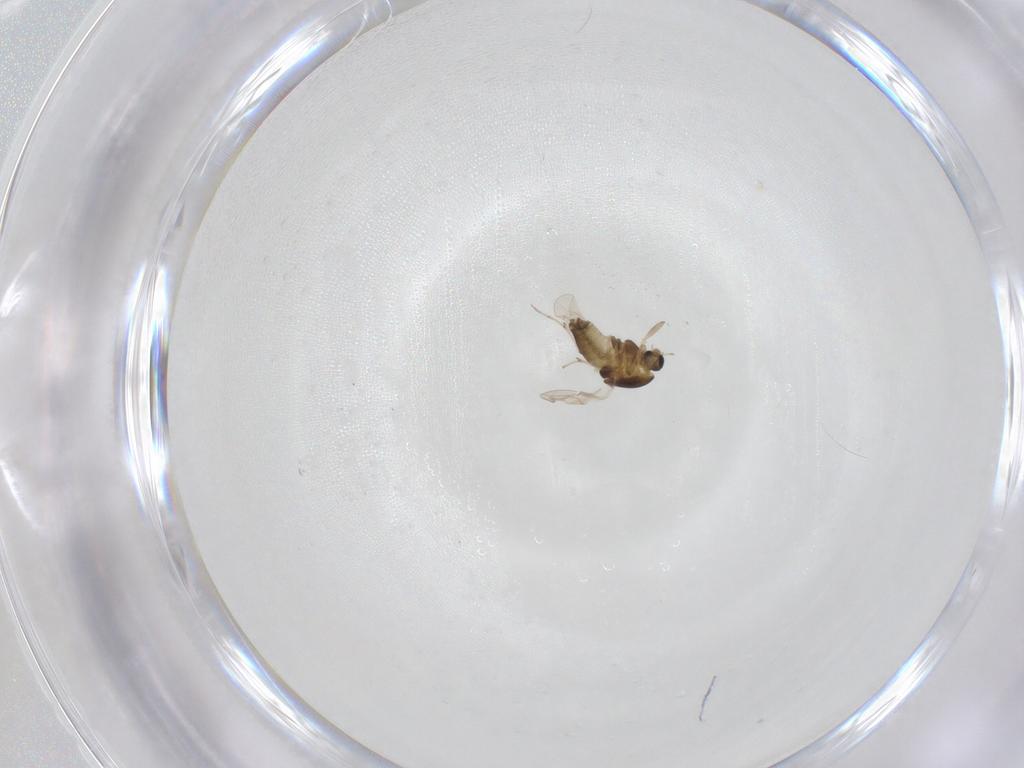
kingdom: Animalia
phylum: Arthropoda
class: Insecta
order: Diptera
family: Chironomidae
